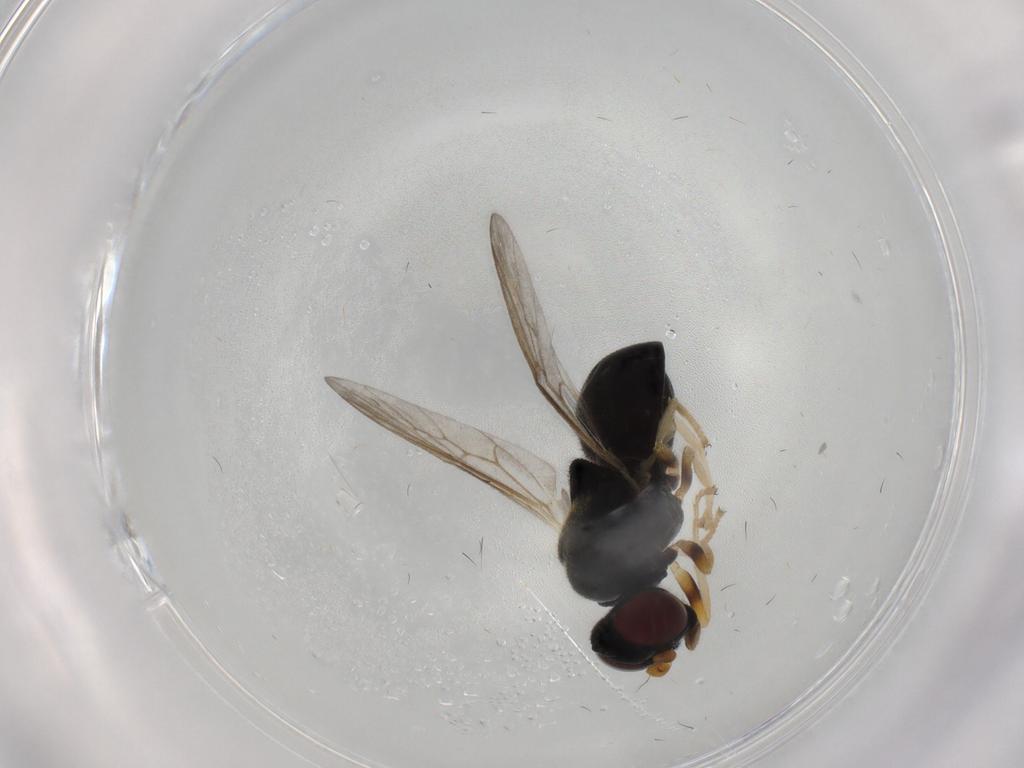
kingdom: Animalia
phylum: Arthropoda
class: Insecta
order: Diptera
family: Stratiomyidae
